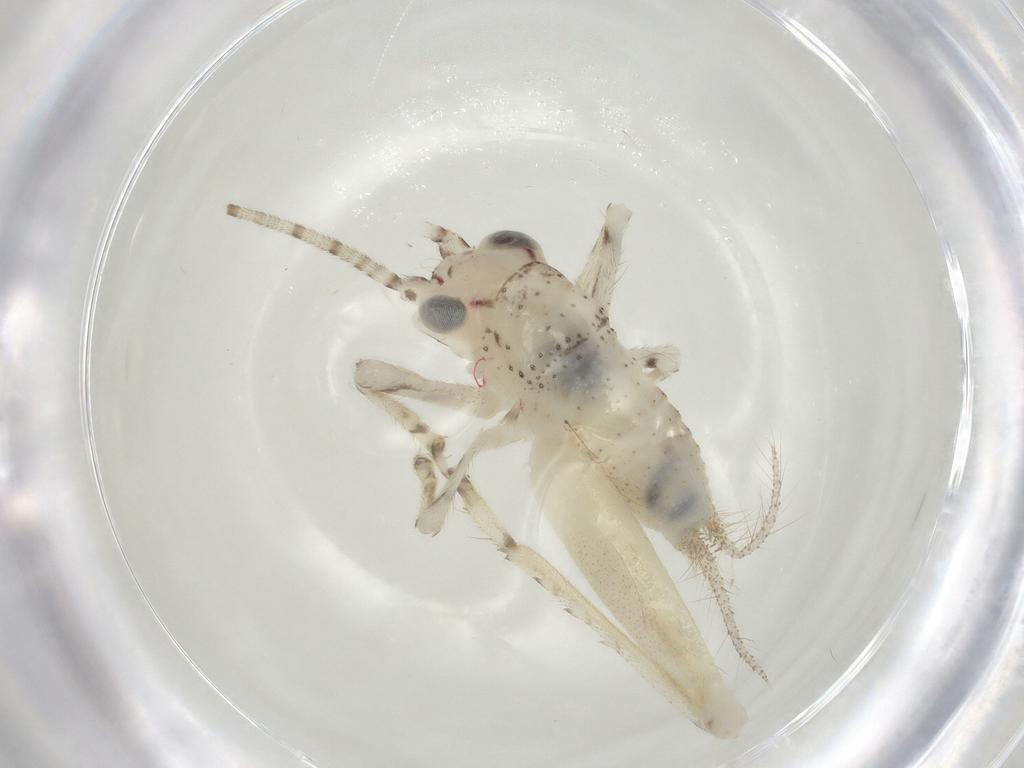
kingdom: Animalia
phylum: Arthropoda
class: Insecta
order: Orthoptera
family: Trigonidiidae
